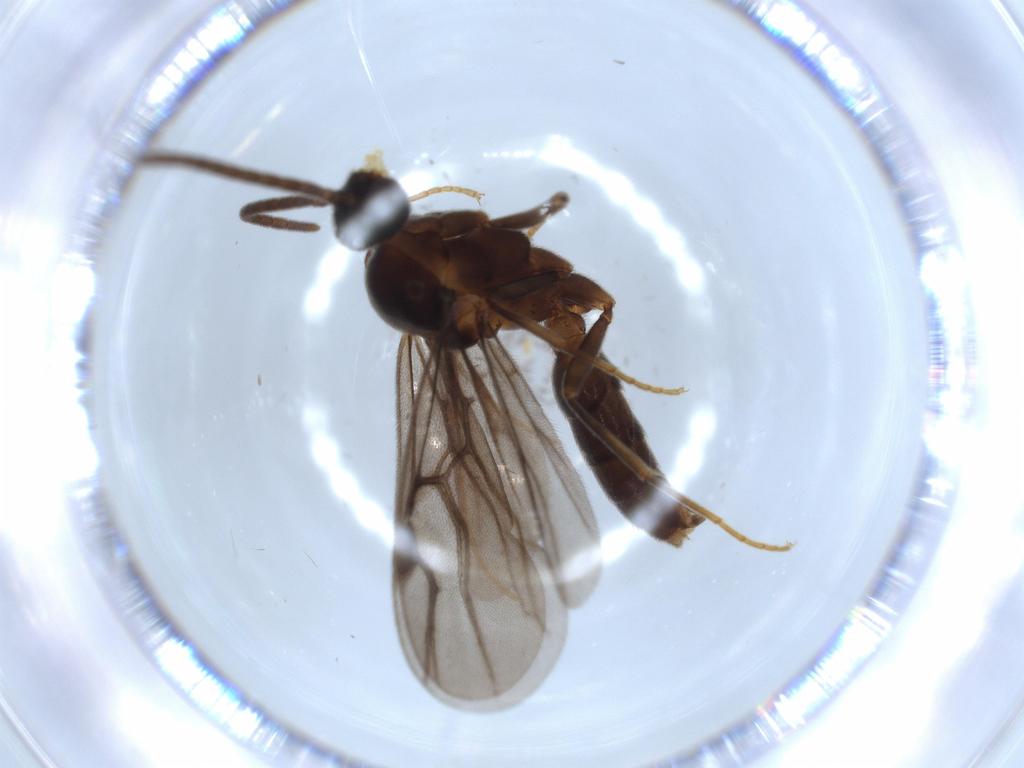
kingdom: Animalia
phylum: Arthropoda
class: Insecta
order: Hymenoptera
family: Formicidae
